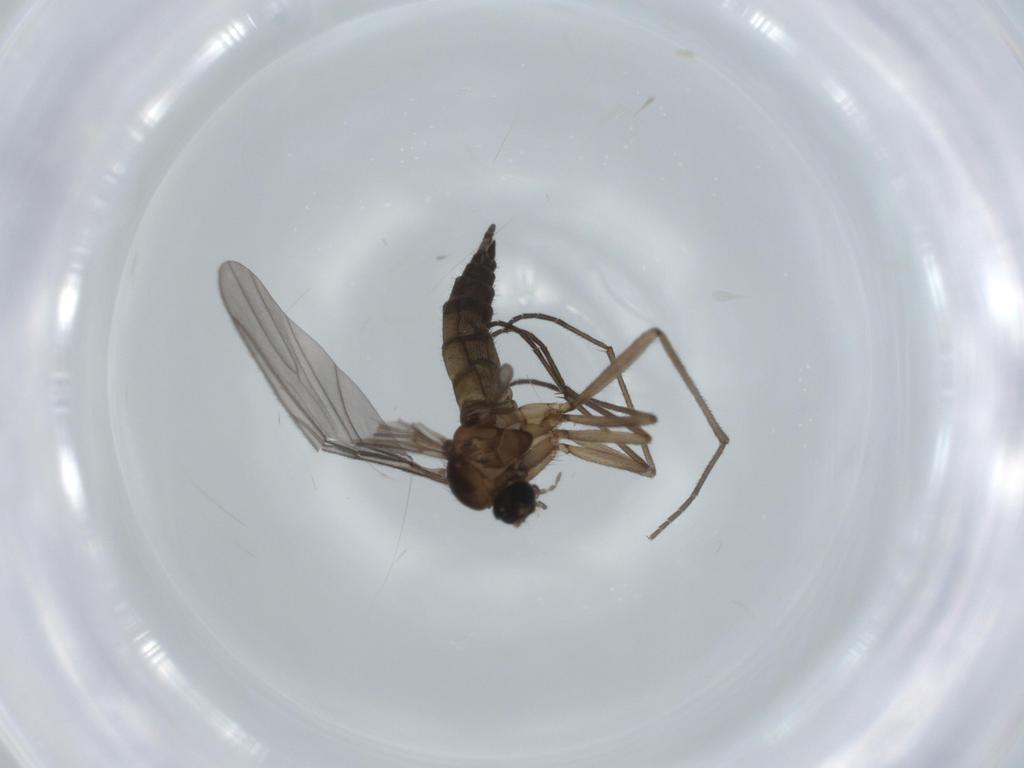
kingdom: Animalia
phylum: Arthropoda
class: Insecta
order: Diptera
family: Sciaridae
